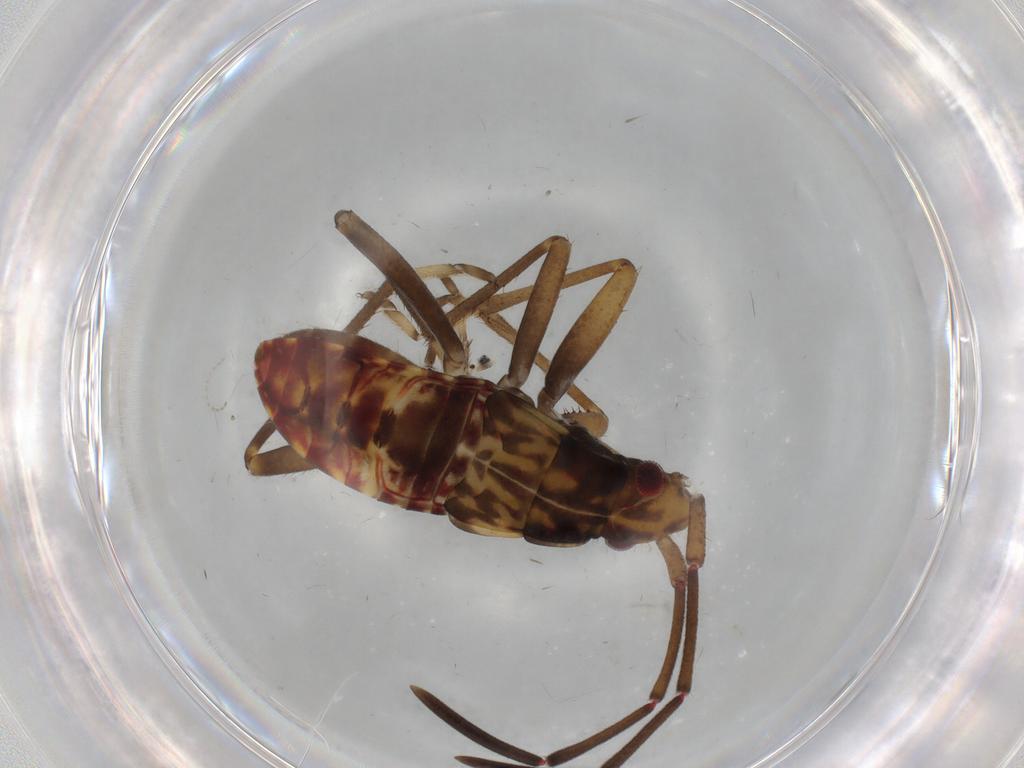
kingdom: Animalia
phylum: Arthropoda
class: Insecta
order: Hemiptera
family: Rhyparochromidae
